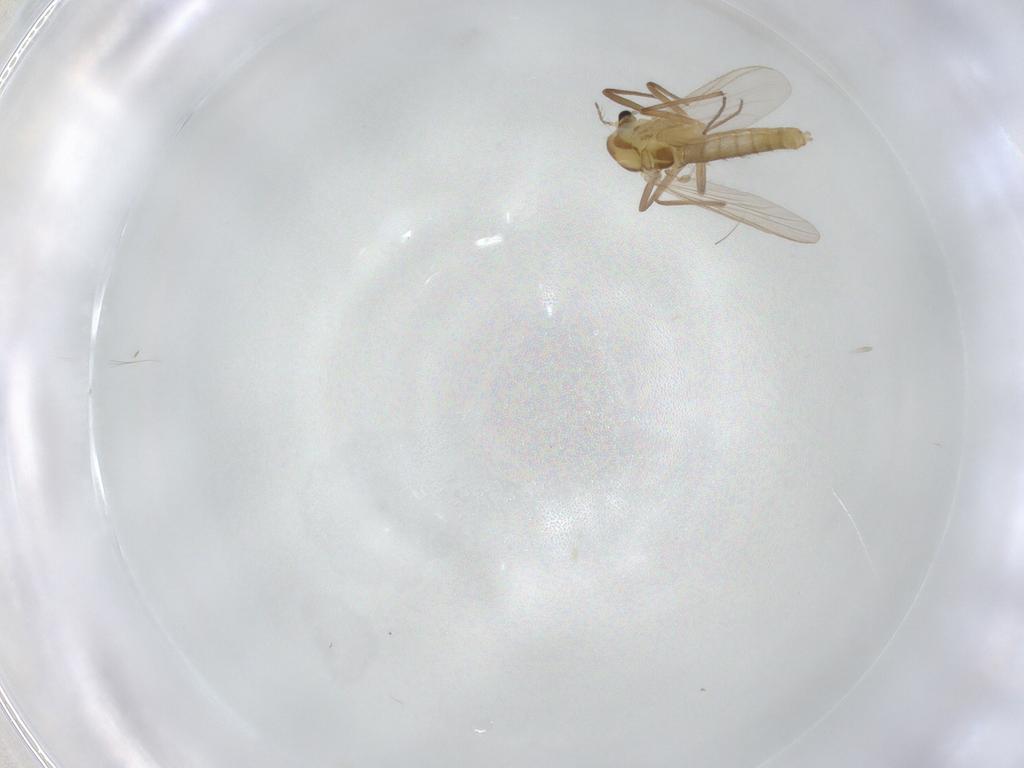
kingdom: Animalia
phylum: Arthropoda
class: Insecta
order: Diptera
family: Chironomidae
